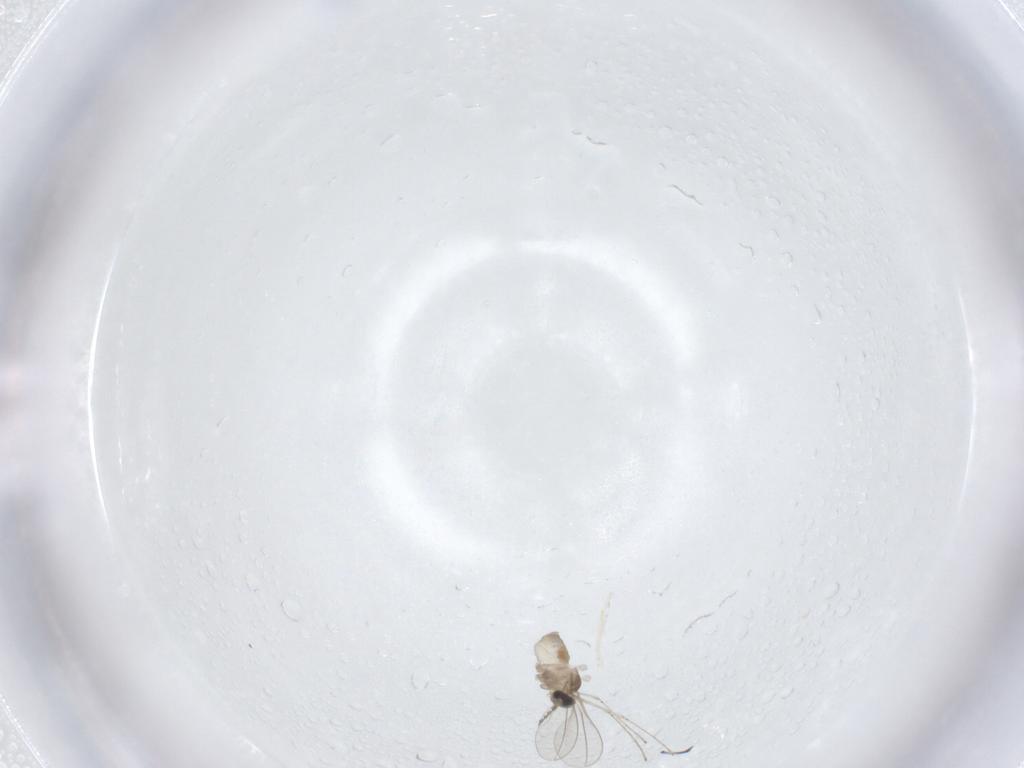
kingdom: Animalia
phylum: Arthropoda
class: Insecta
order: Diptera
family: Cecidomyiidae
